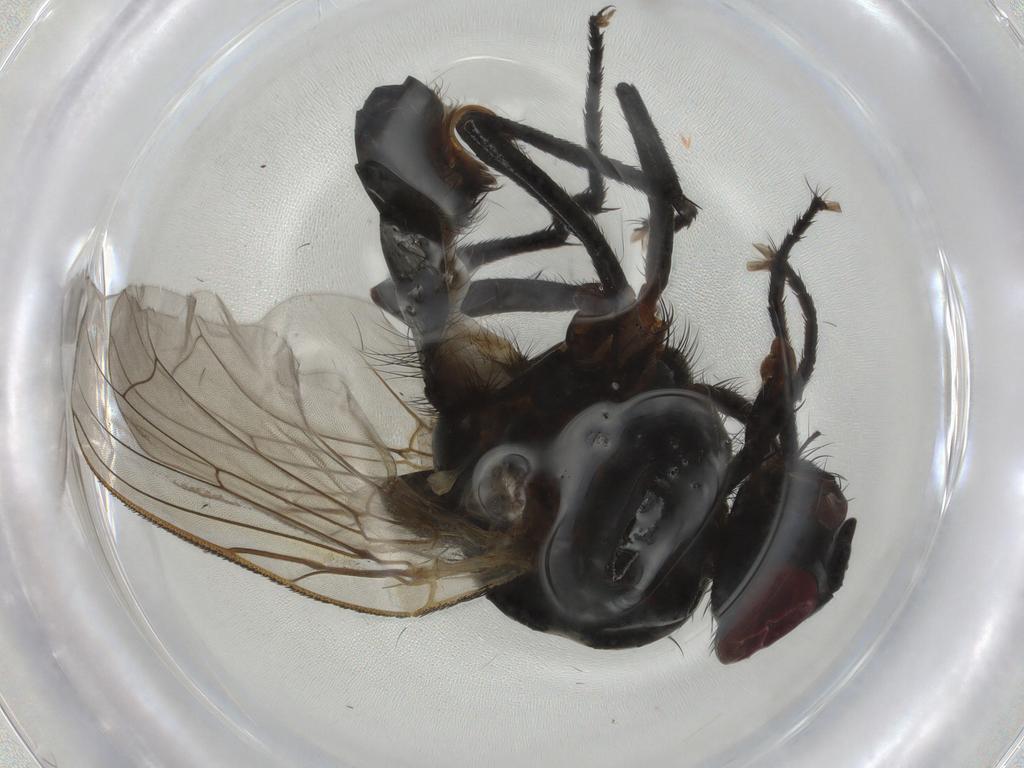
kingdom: Animalia
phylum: Arthropoda
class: Insecta
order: Diptera
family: Anthomyiidae
